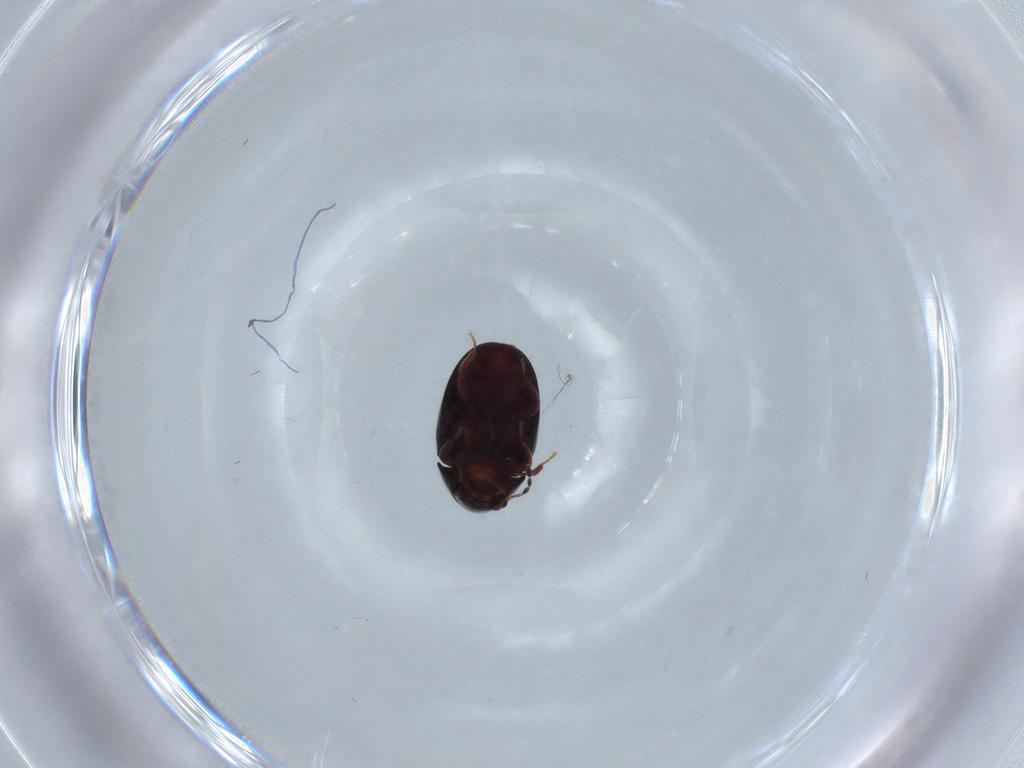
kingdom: Animalia
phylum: Arthropoda
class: Insecta
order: Coleoptera
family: Ptinidae
